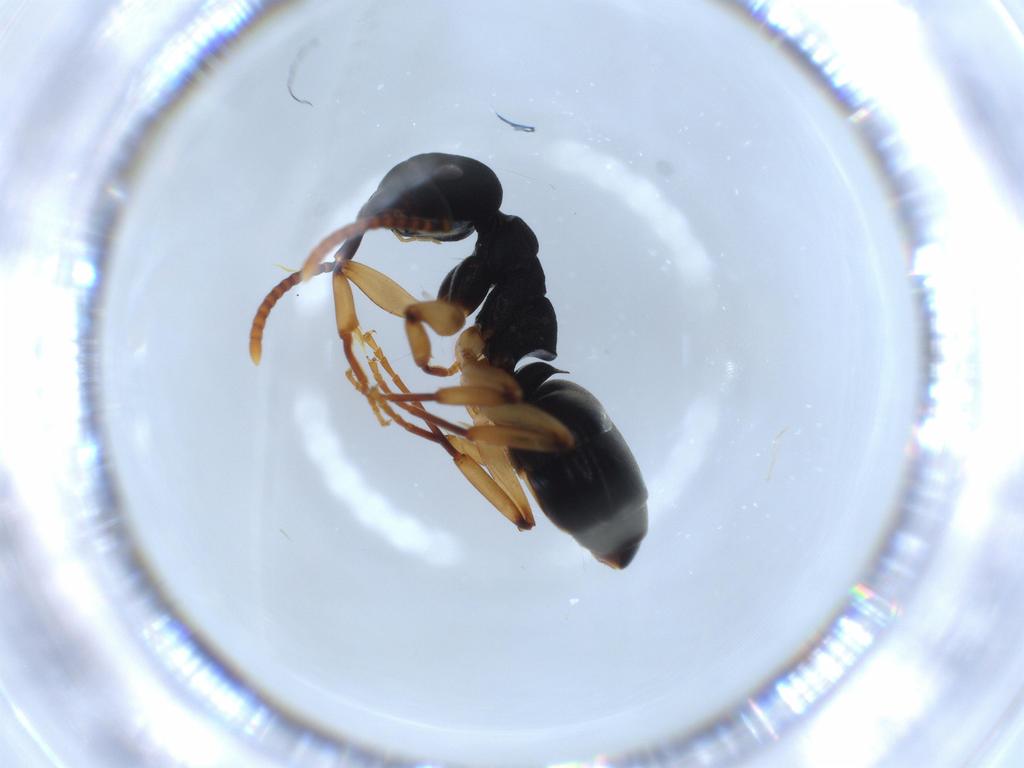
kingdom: Animalia
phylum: Arthropoda
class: Insecta
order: Hymenoptera
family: Formicidae
